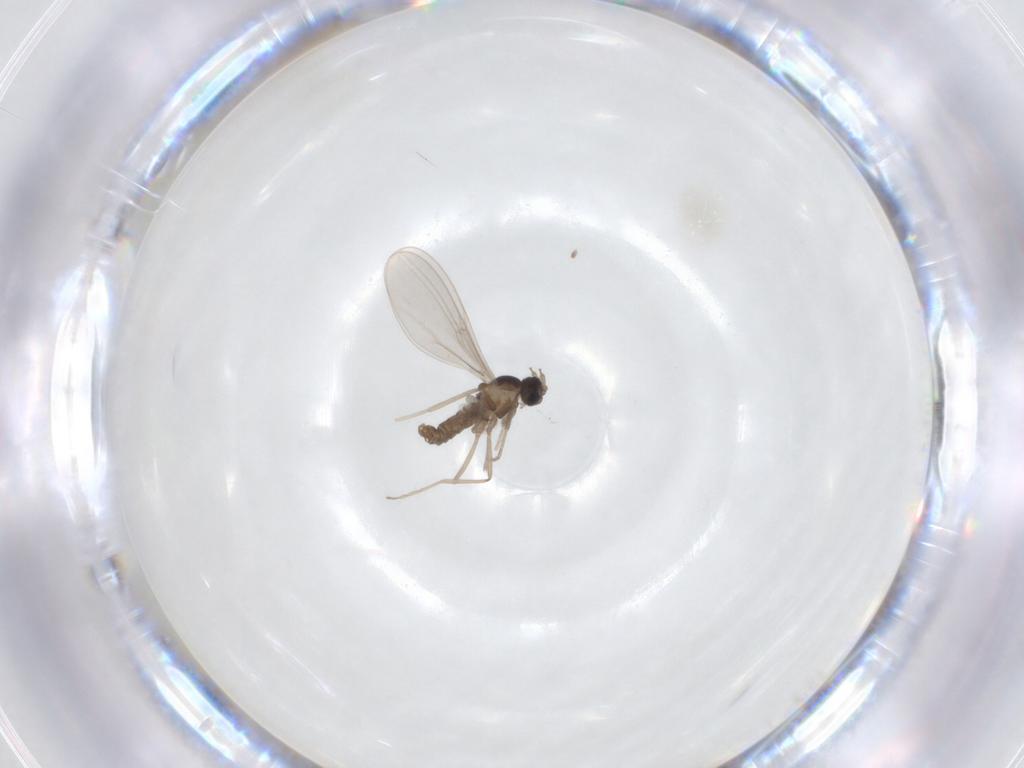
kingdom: Animalia
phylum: Arthropoda
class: Insecta
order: Diptera
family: Cecidomyiidae
